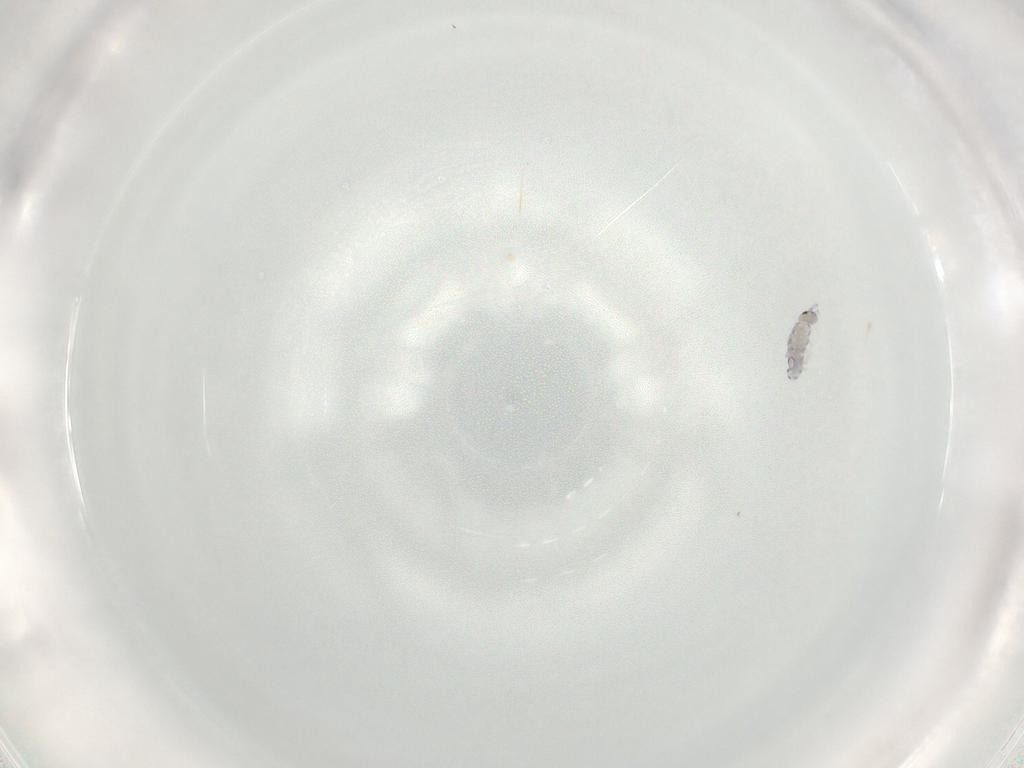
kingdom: Animalia
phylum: Arthropoda
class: Collembola
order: Entomobryomorpha
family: Entomobryidae
